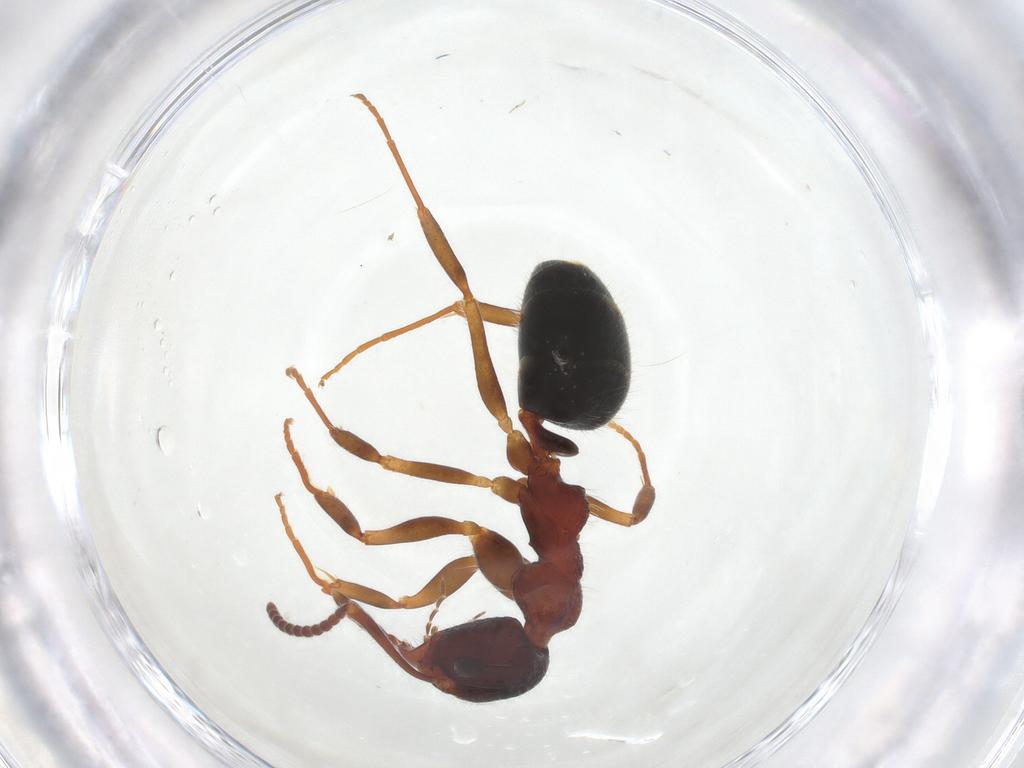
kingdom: Animalia
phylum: Arthropoda
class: Insecta
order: Hymenoptera
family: Formicidae
